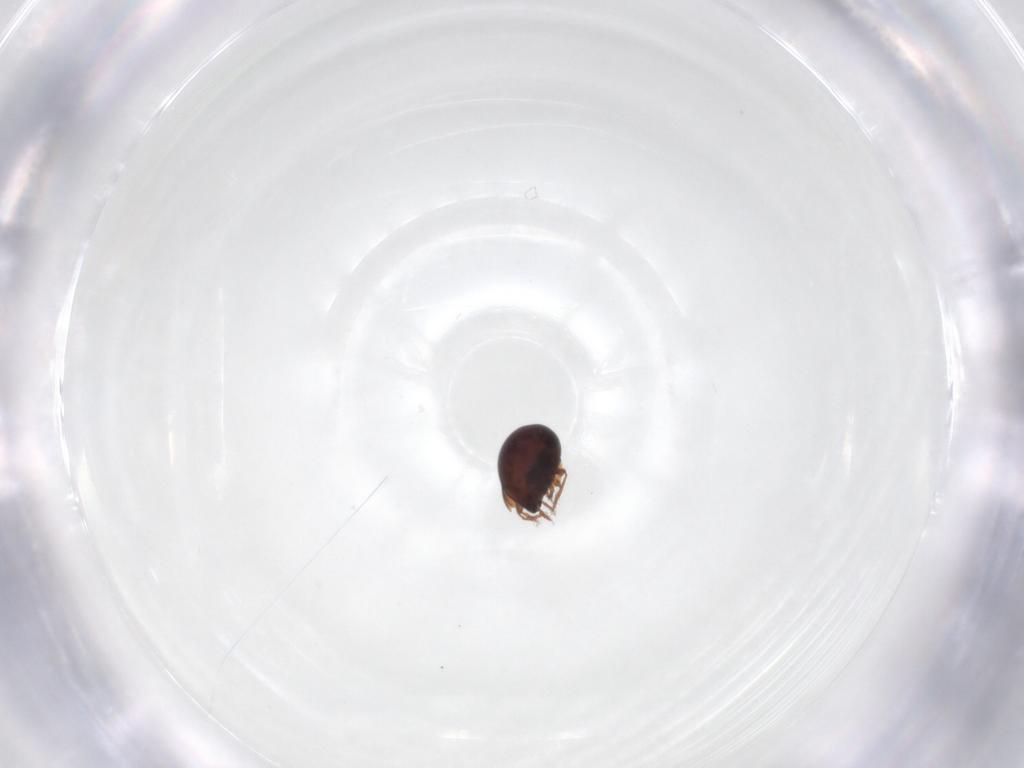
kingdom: Animalia
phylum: Arthropoda
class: Arachnida
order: Sarcoptiformes
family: Galumnidae
